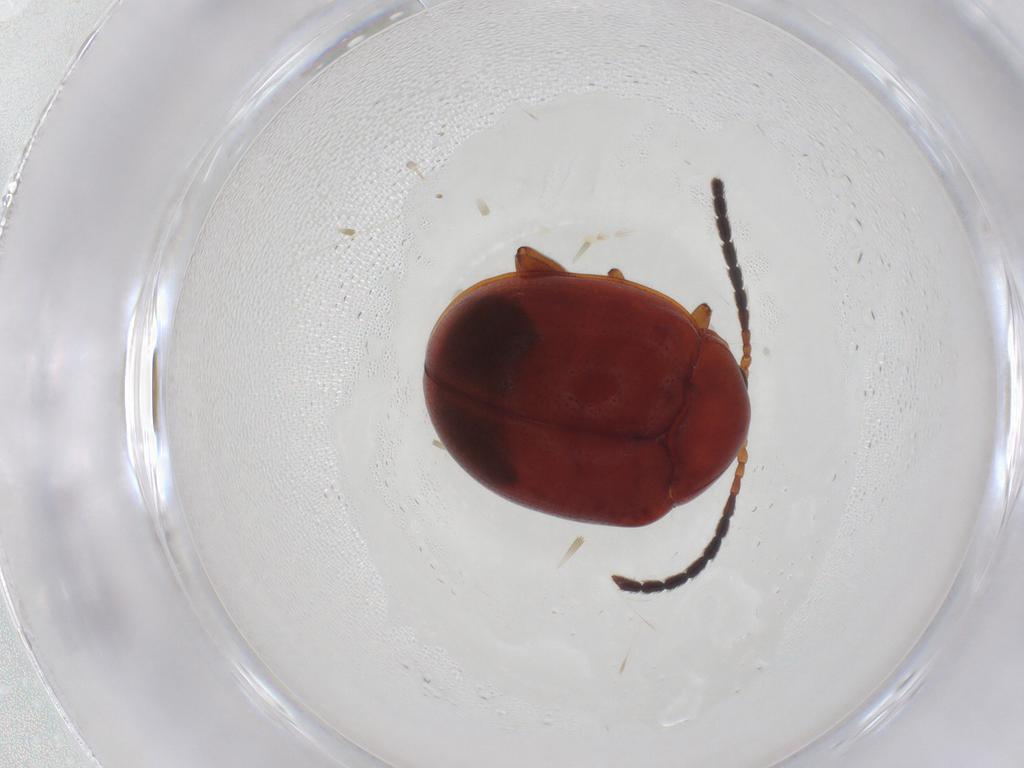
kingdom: Animalia
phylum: Arthropoda
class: Insecta
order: Coleoptera
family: Chrysomelidae
